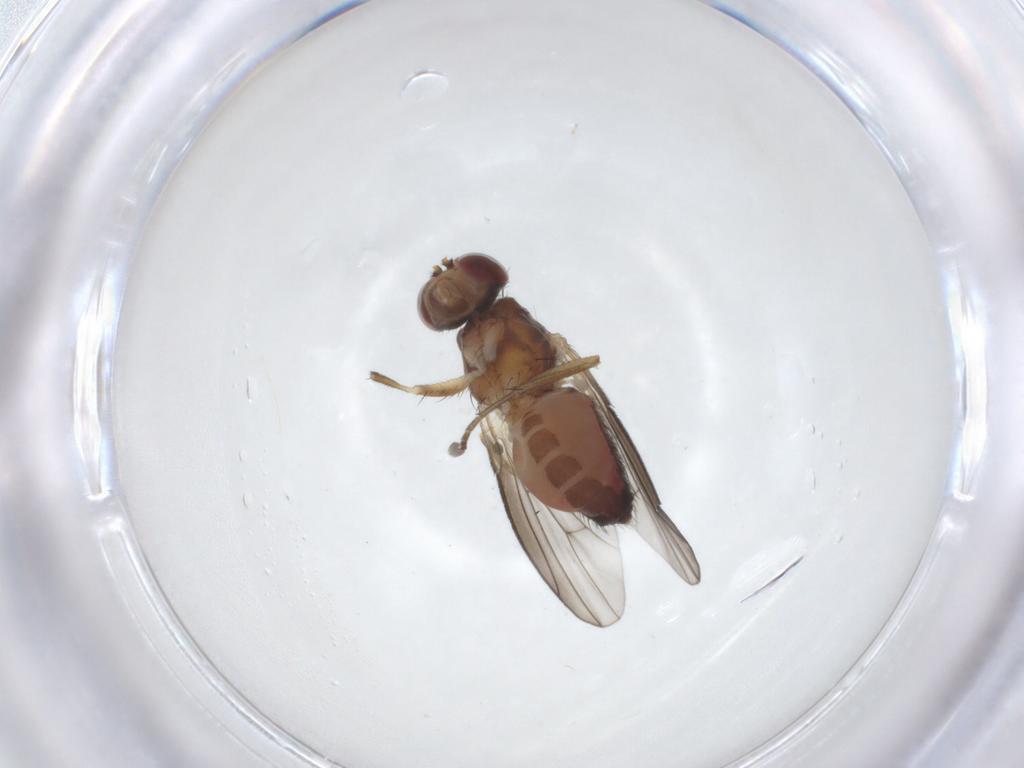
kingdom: Animalia
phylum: Arthropoda
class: Insecta
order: Diptera
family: Heleomyzidae
